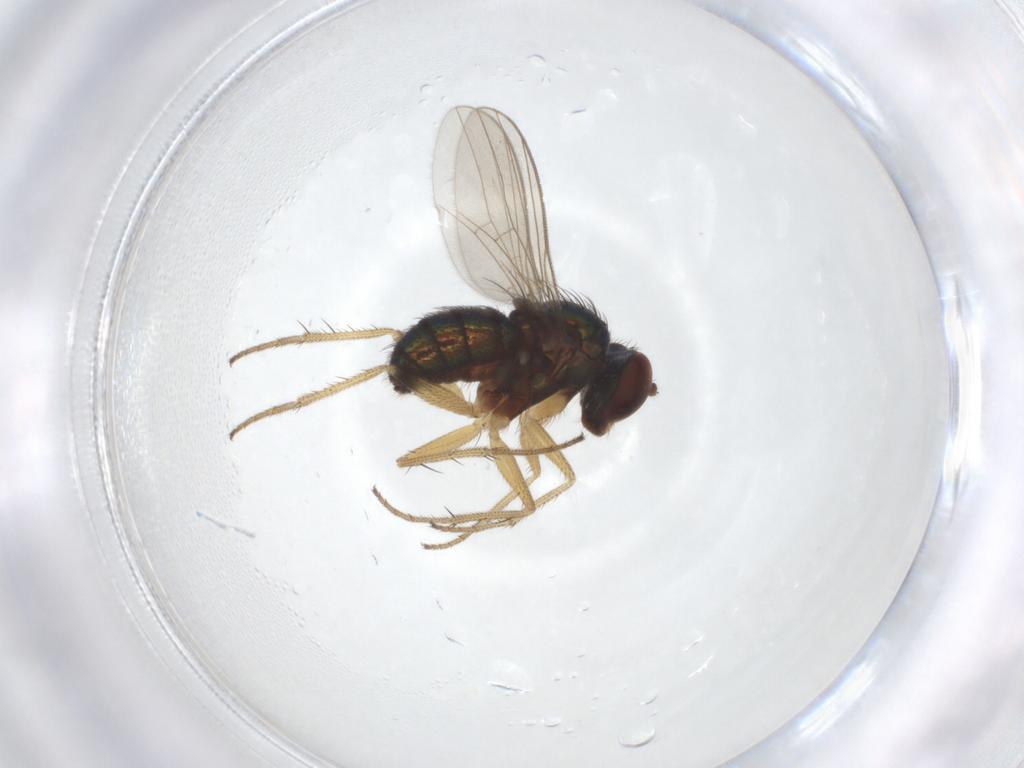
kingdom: Animalia
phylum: Arthropoda
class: Insecta
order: Diptera
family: Dolichopodidae
